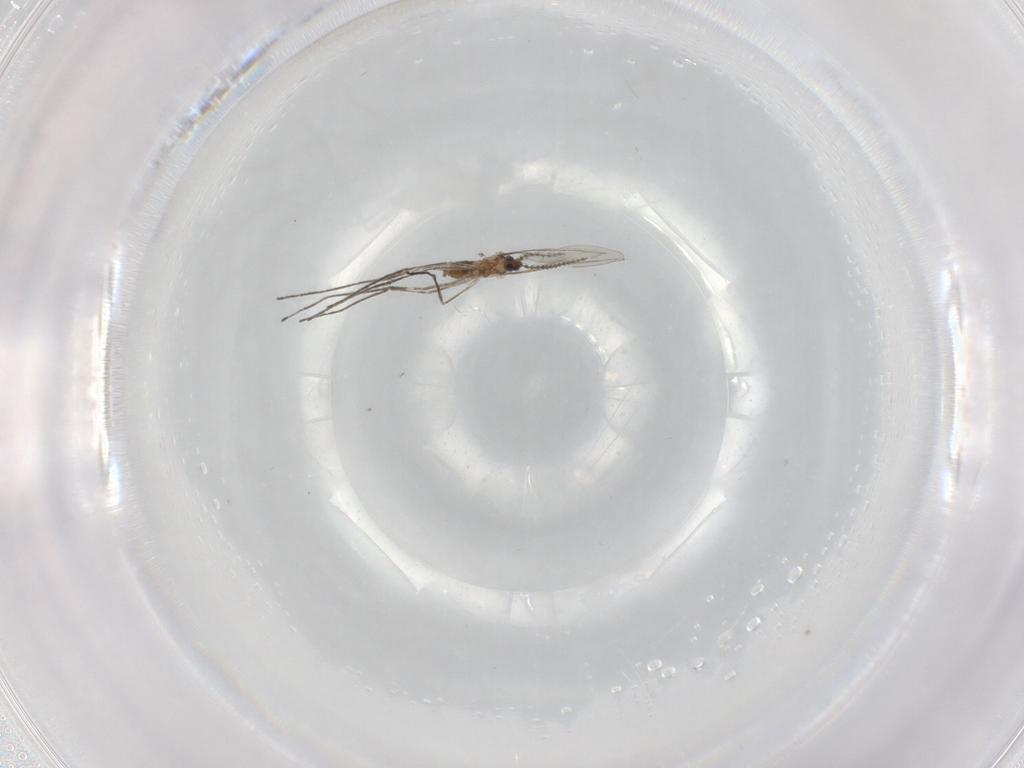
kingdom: Animalia
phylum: Arthropoda
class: Insecta
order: Diptera
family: Cecidomyiidae
